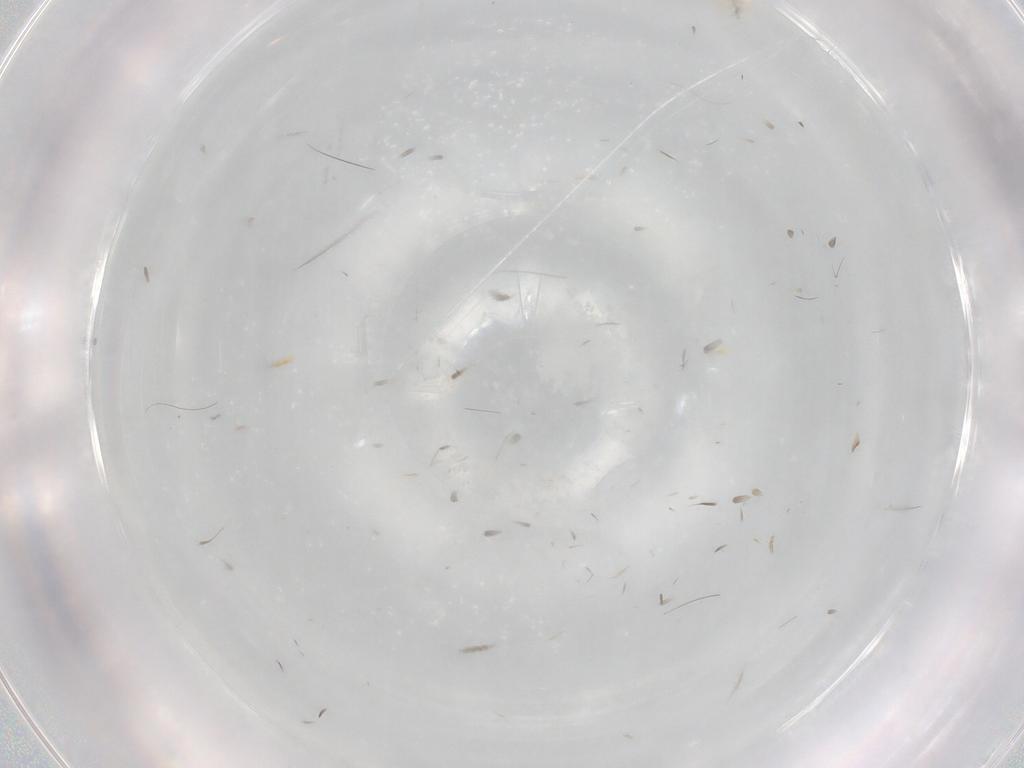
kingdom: Animalia
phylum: Arthropoda
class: Arachnida
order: Trombidiformes
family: Erythraeidae
